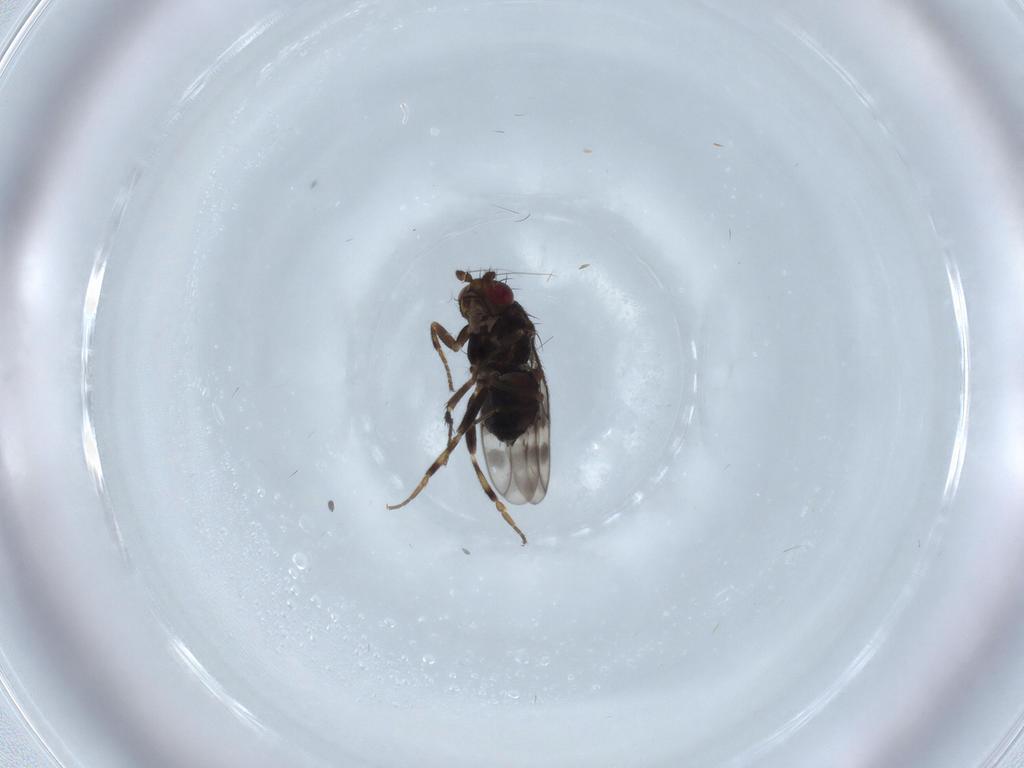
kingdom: Animalia
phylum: Arthropoda
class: Insecta
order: Diptera
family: Sphaeroceridae
